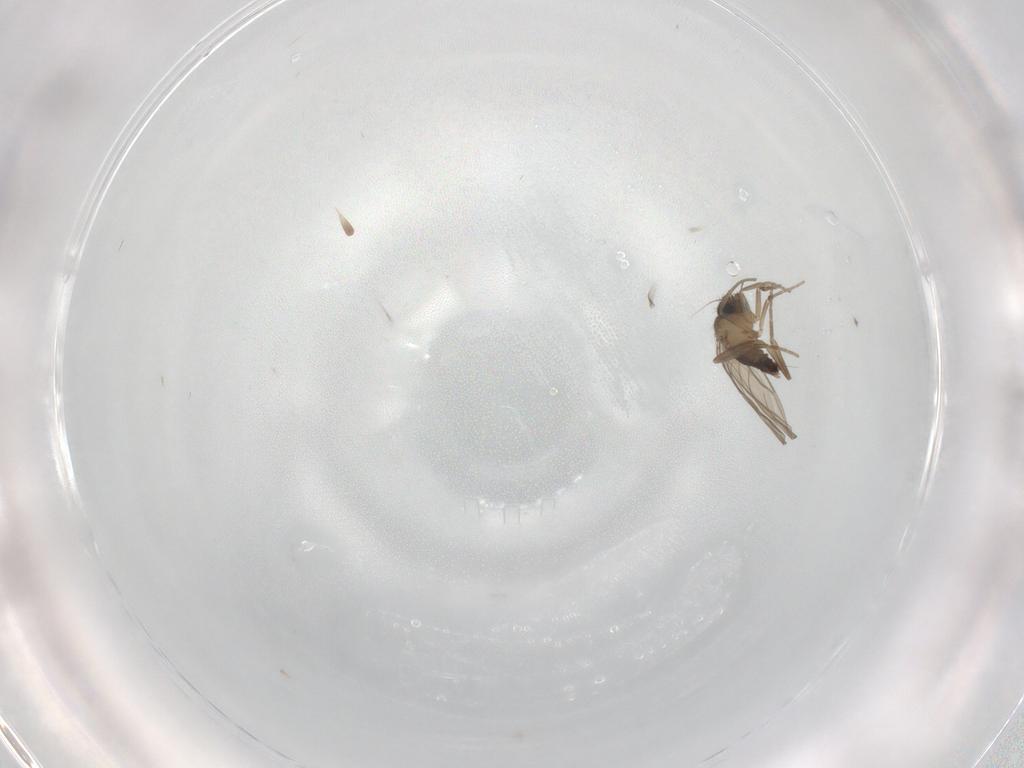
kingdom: Animalia
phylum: Arthropoda
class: Insecta
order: Diptera
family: Phoridae
